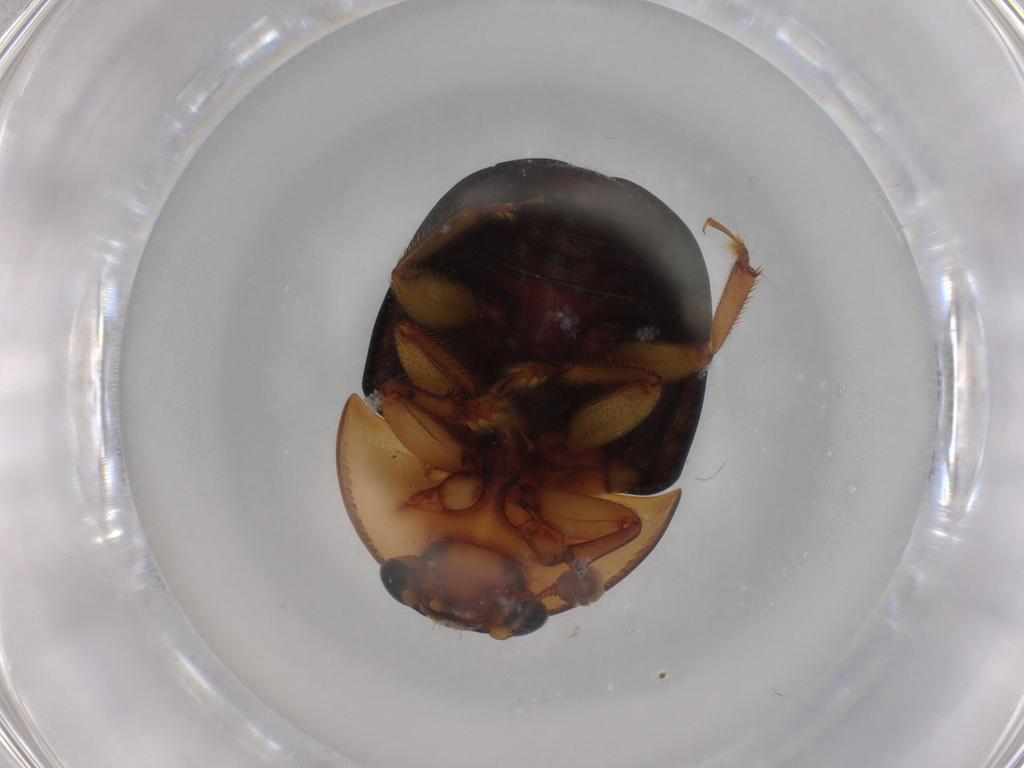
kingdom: Animalia
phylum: Arthropoda
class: Insecta
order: Coleoptera
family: Nitidulidae
